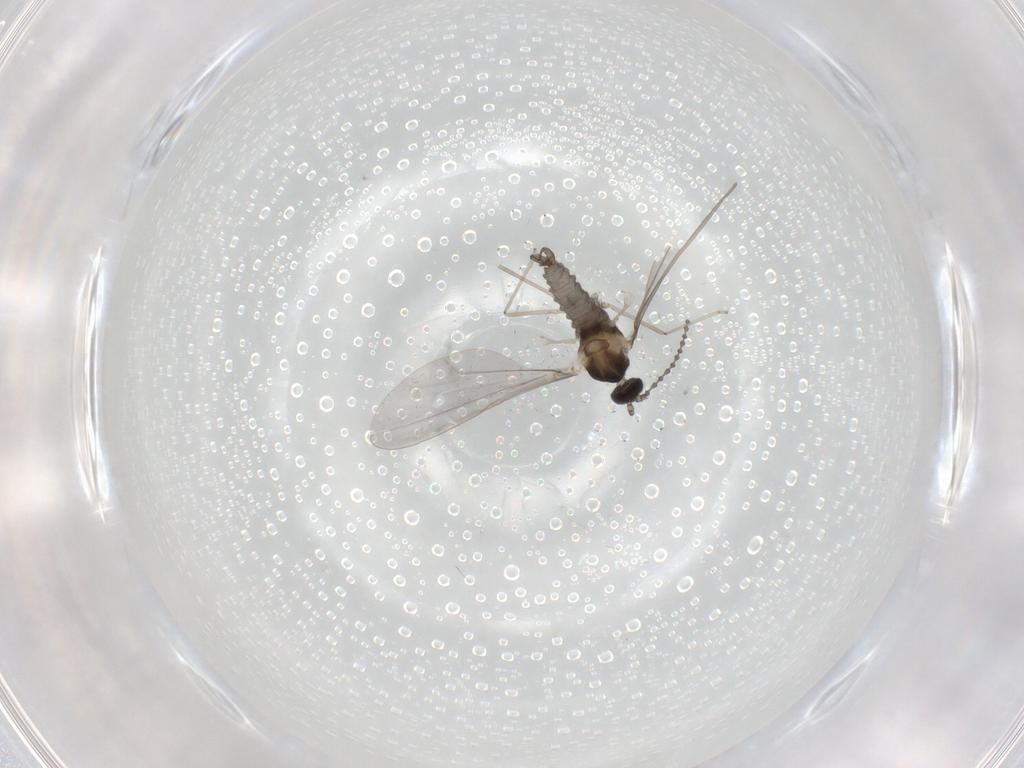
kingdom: Animalia
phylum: Arthropoda
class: Insecta
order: Diptera
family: Cecidomyiidae
